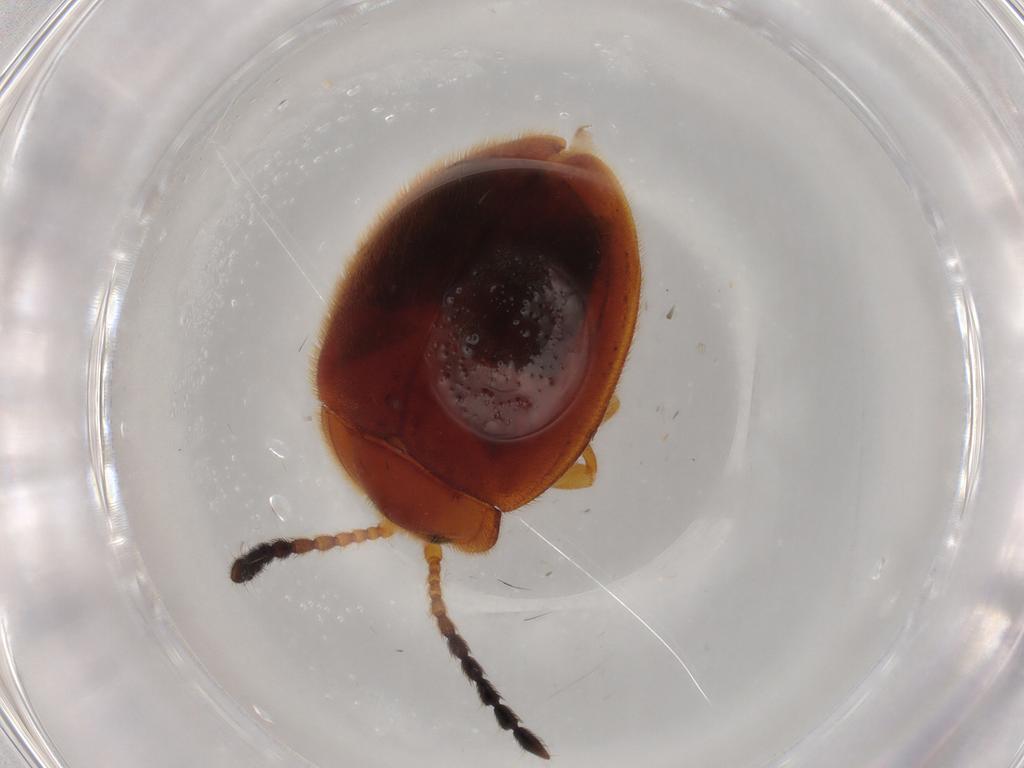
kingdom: Animalia
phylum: Arthropoda
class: Insecta
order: Coleoptera
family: Endomychidae
